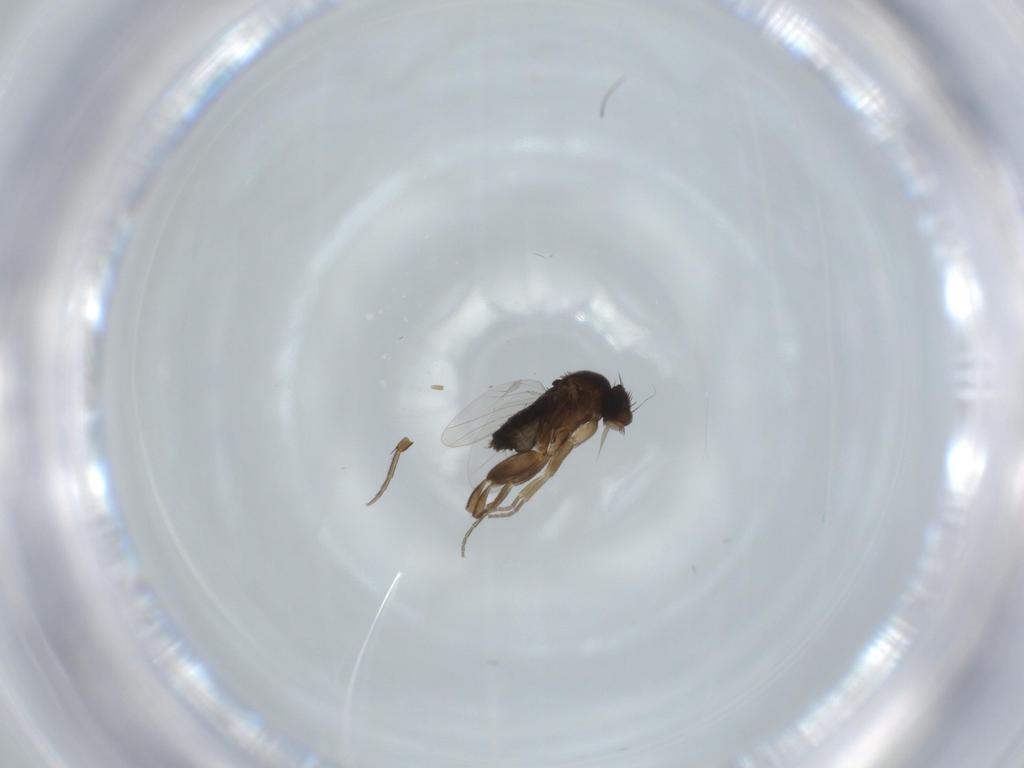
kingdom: Animalia
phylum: Arthropoda
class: Insecta
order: Diptera
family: Phoridae
